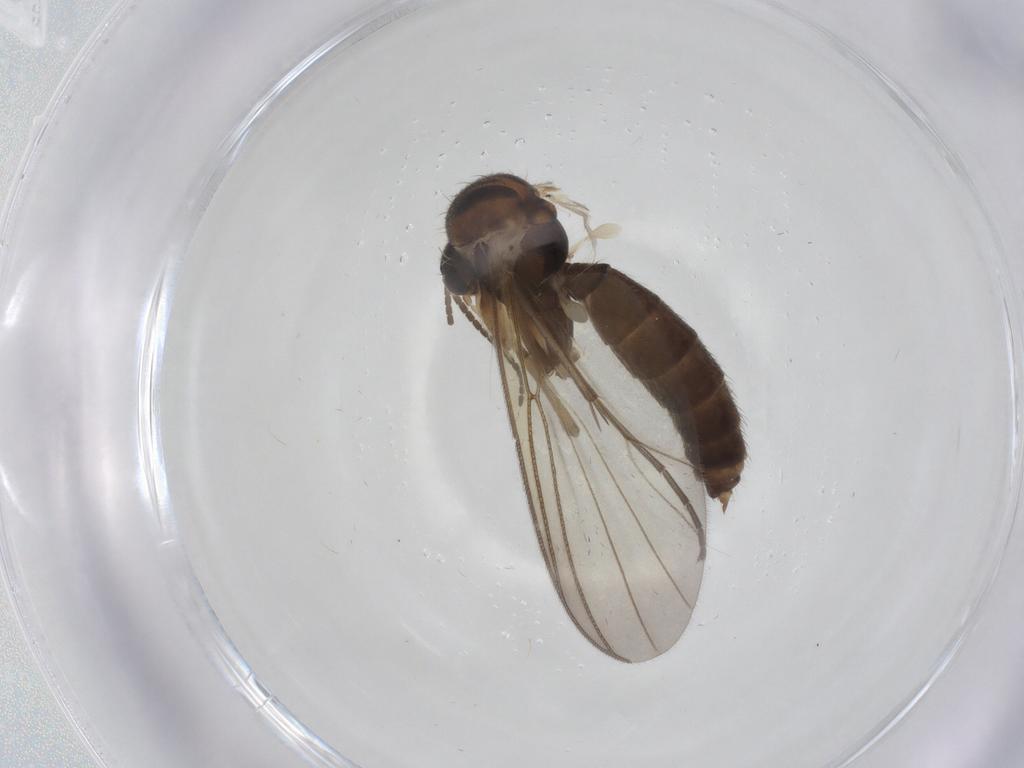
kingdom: Animalia
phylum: Arthropoda
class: Insecta
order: Diptera
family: Mycetophilidae
